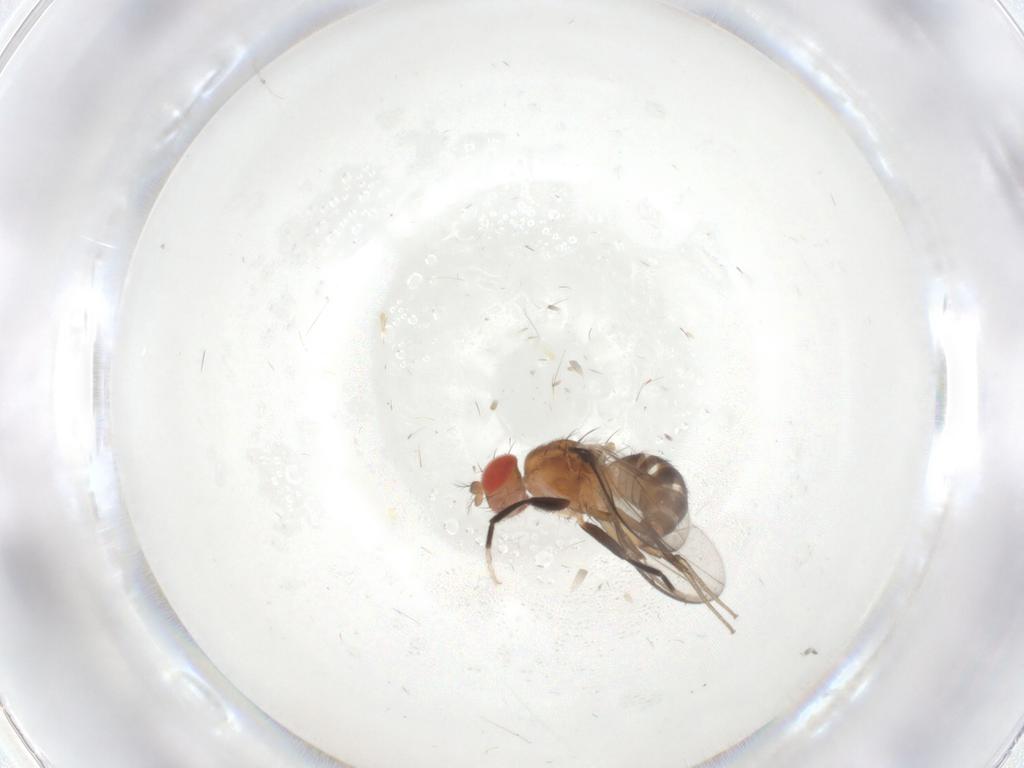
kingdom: Animalia
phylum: Arthropoda
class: Insecta
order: Diptera
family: Drosophilidae
